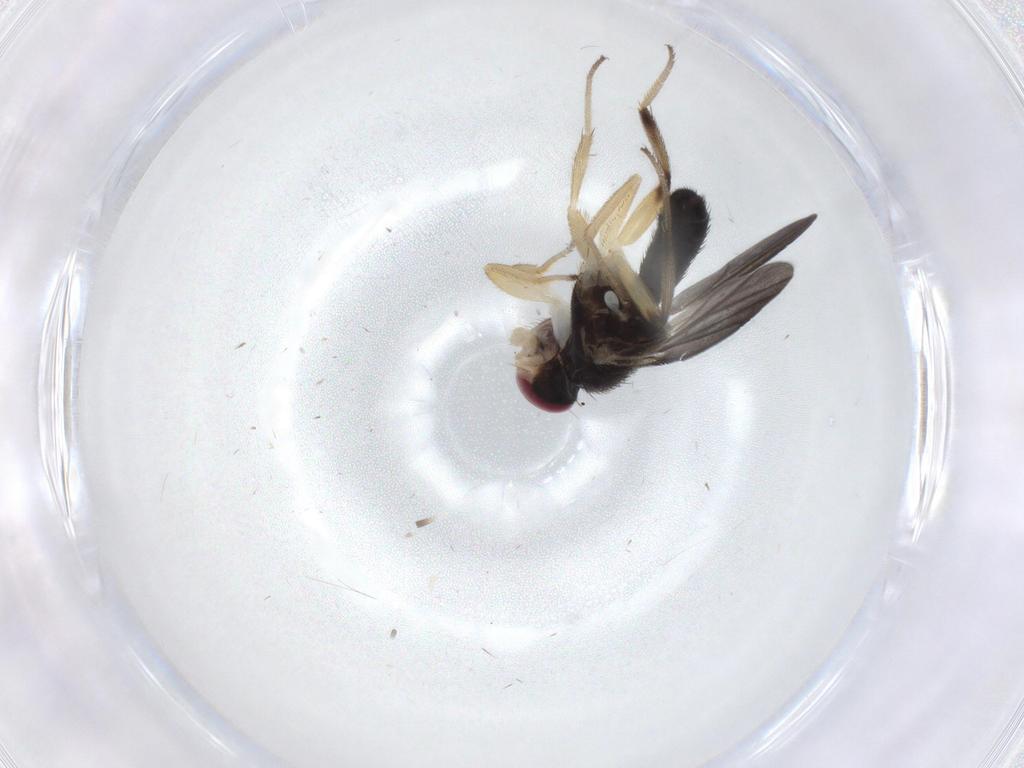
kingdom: Animalia
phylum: Arthropoda
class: Insecta
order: Diptera
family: Clusiidae
